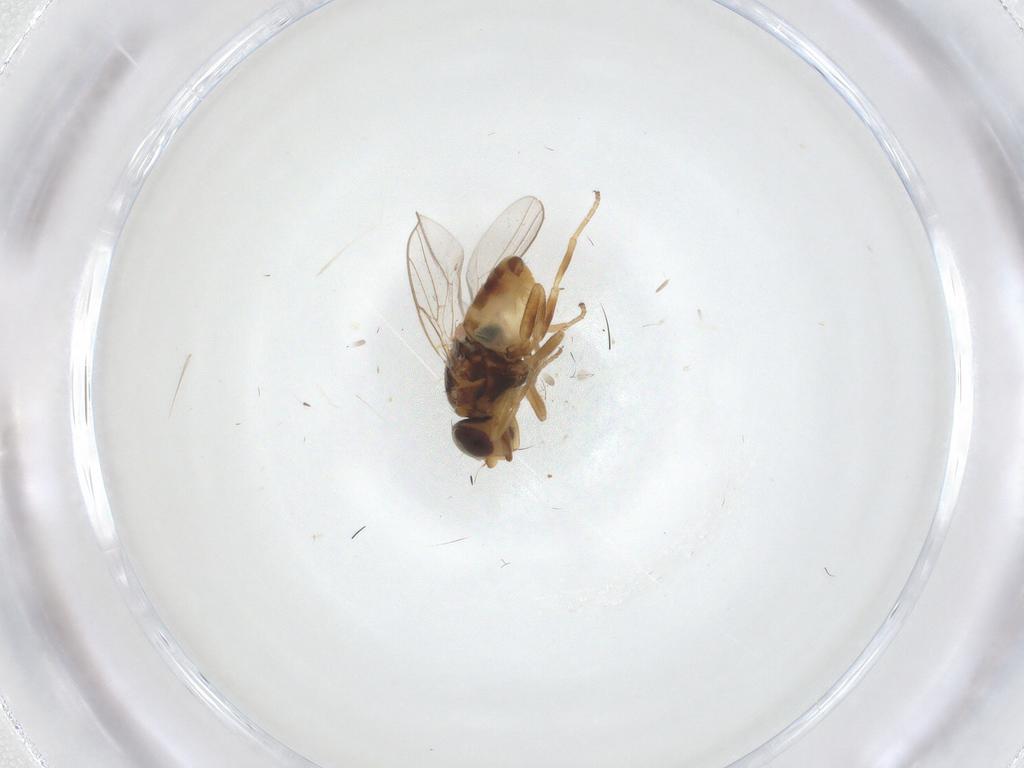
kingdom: Animalia
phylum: Arthropoda
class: Insecta
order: Diptera
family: Chloropidae
